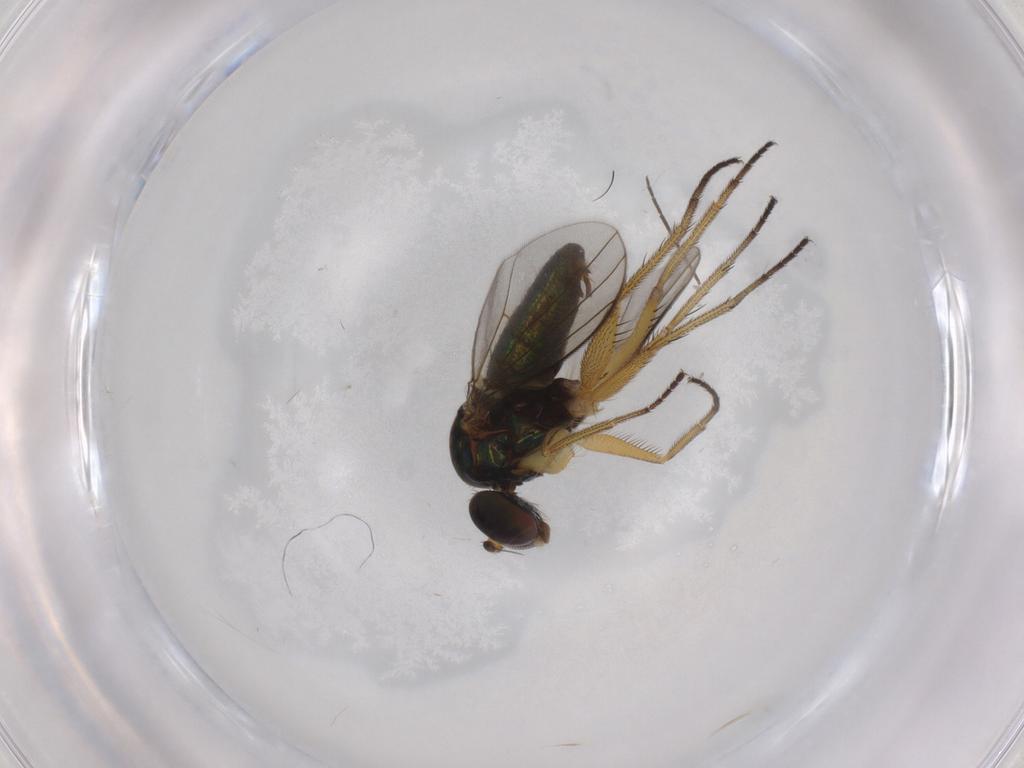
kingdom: Animalia
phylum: Arthropoda
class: Insecta
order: Diptera
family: Dolichopodidae
